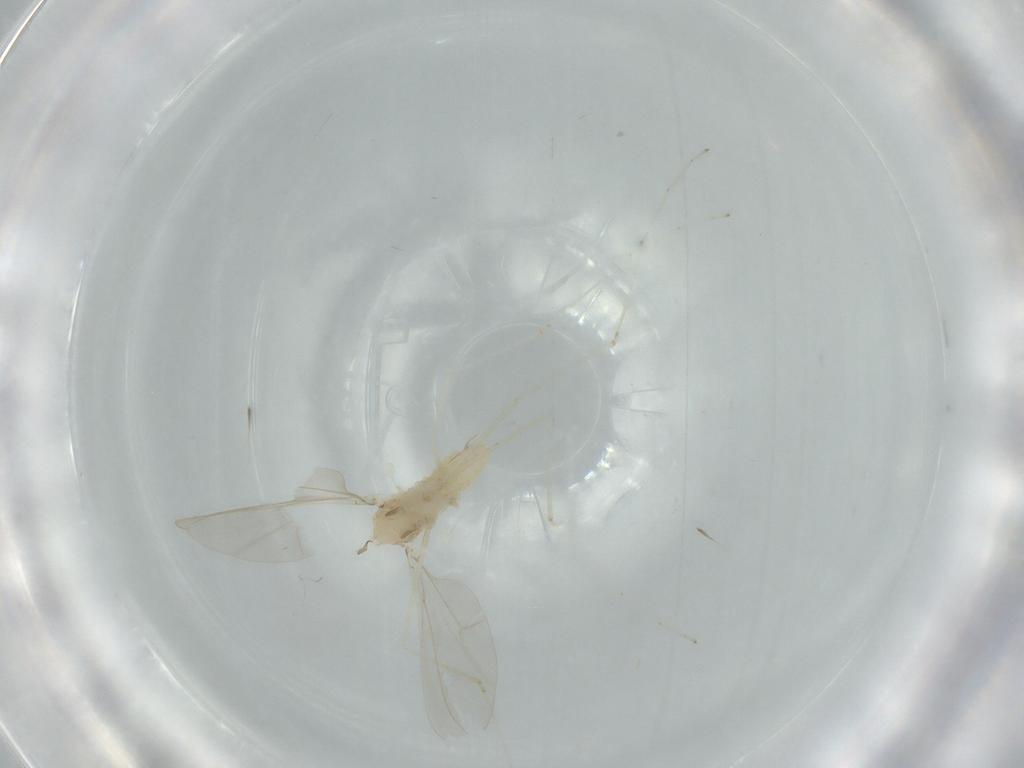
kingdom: Animalia
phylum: Arthropoda
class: Insecta
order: Diptera
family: Cecidomyiidae
